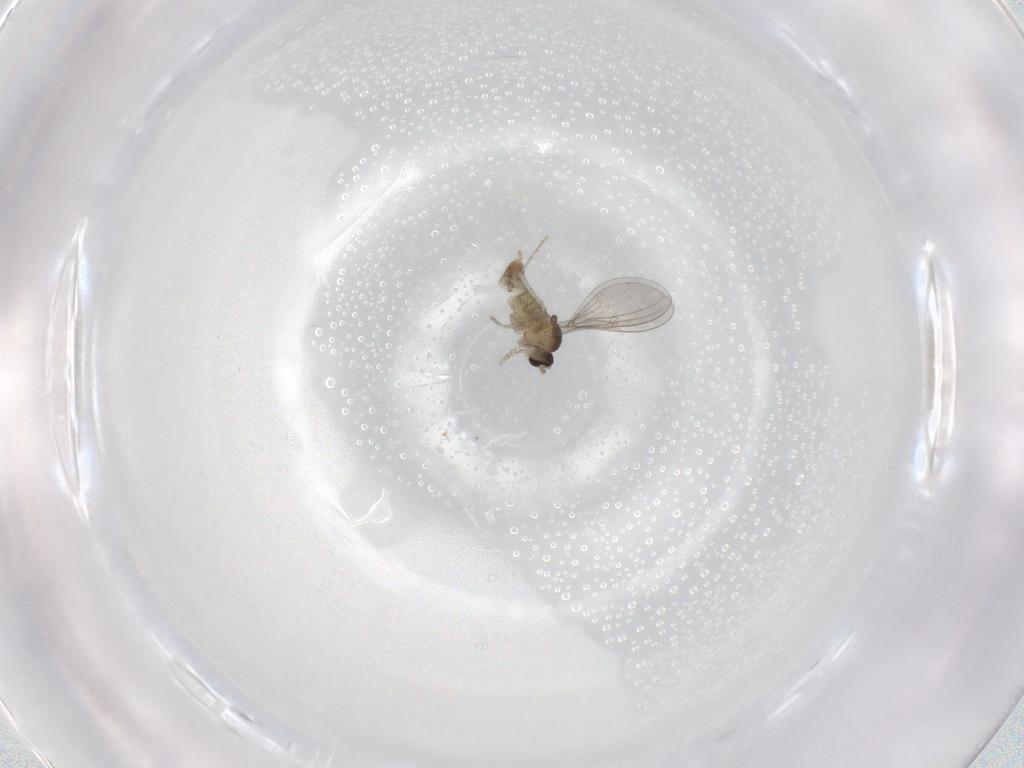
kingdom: Animalia
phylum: Arthropoda
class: Insecta
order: Diptera
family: Cecidomyiidae
